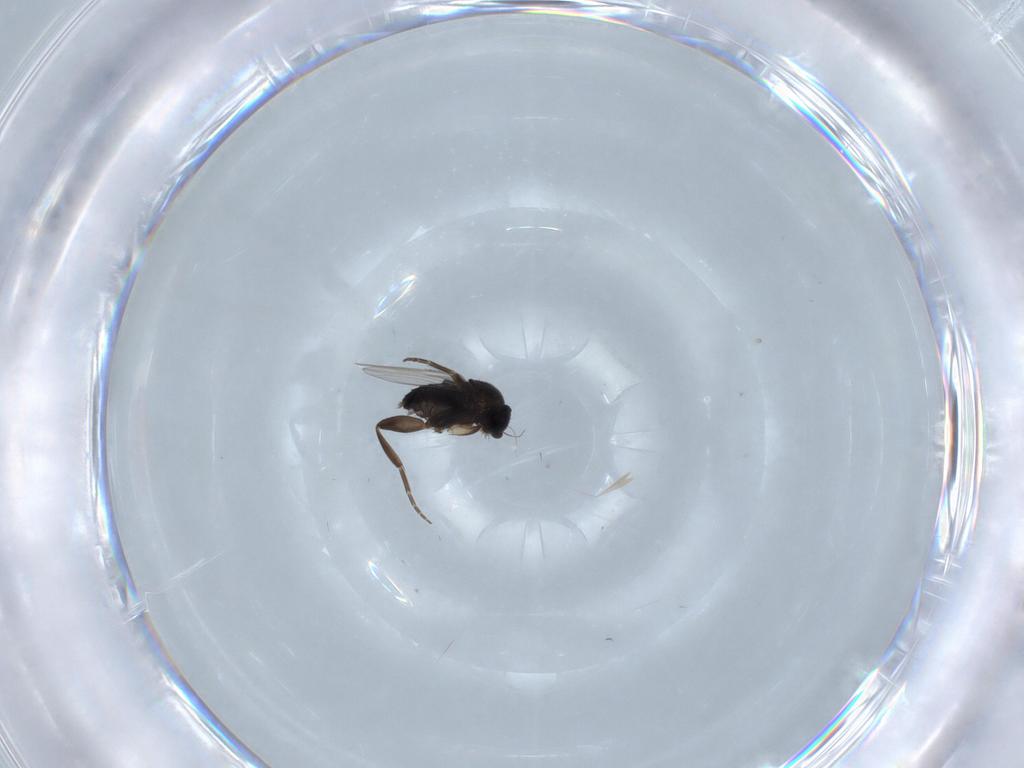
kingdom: Animalia
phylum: Arthropoda
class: Insecta
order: Diptera
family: Phoridae
